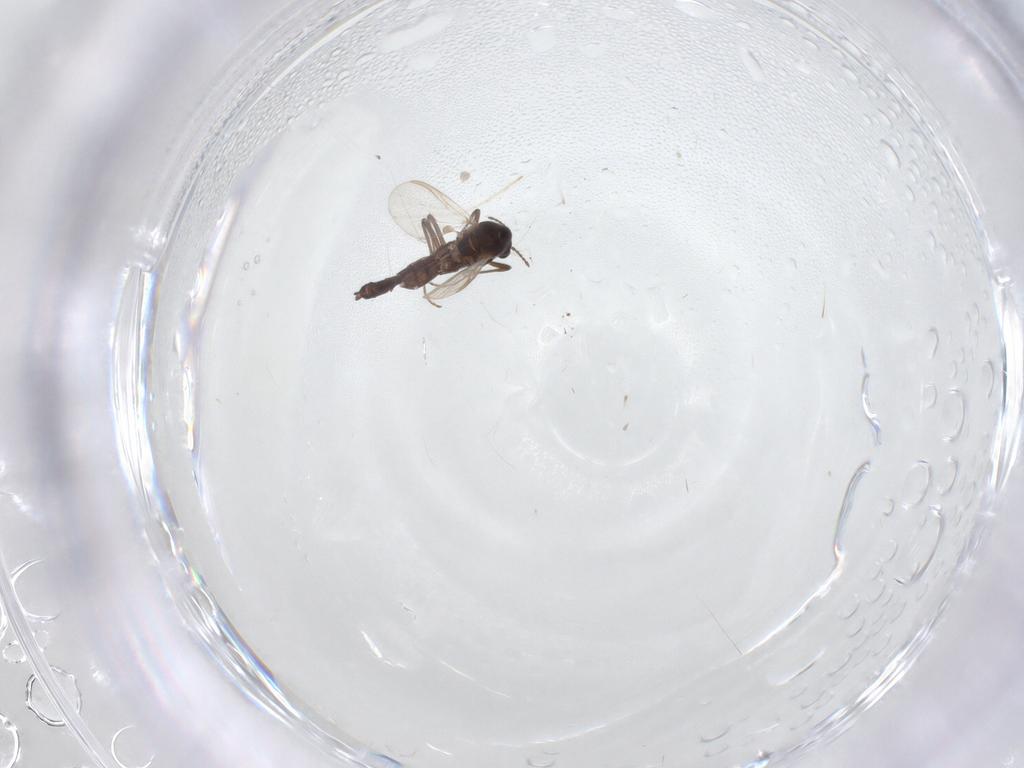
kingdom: Animalia
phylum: Arthropoda
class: Insecta
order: Diptera
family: Chironomidae
